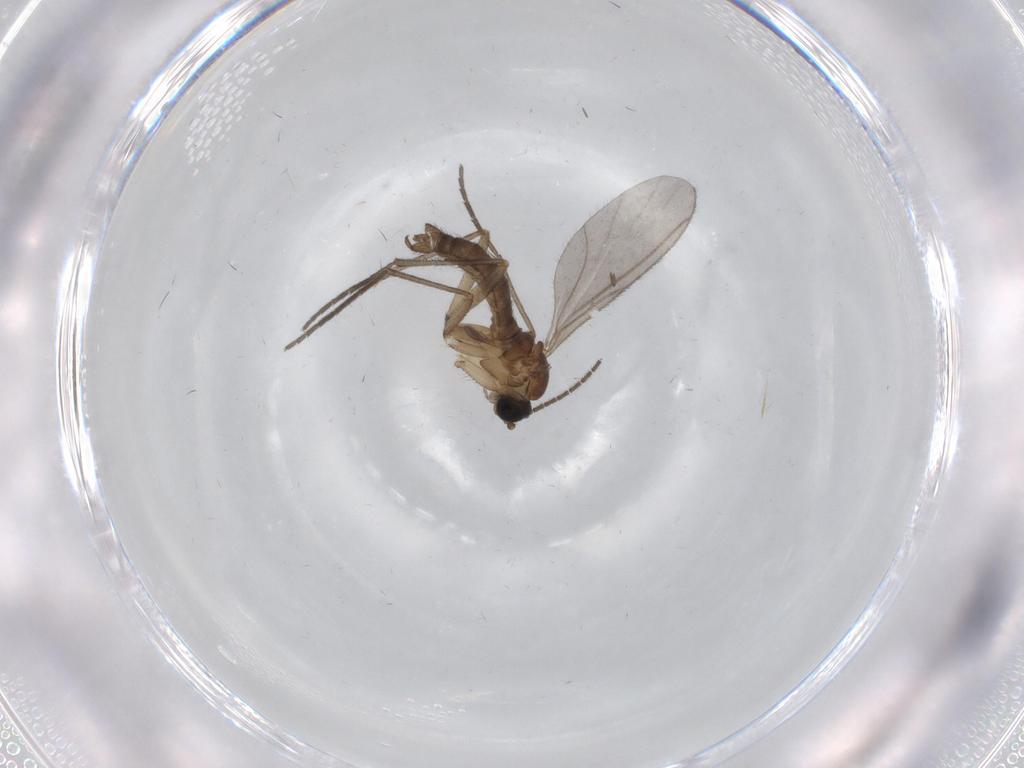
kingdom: Animalia
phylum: Arthropoda
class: Insecta
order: Diptera
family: Sciaridae
